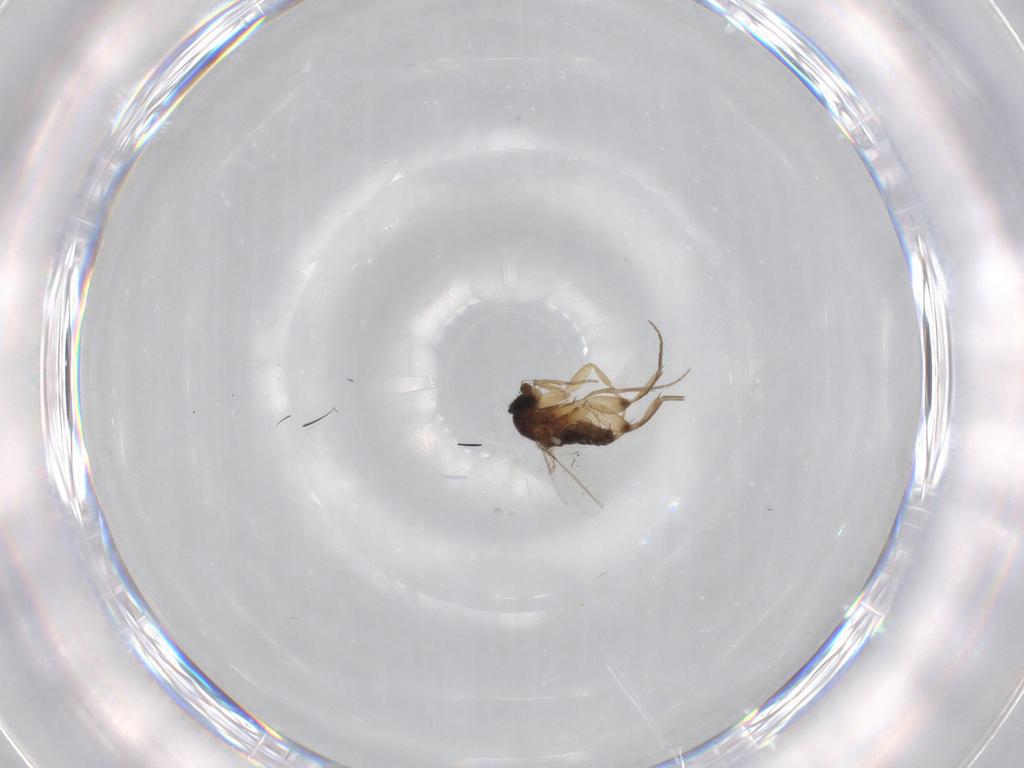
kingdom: Animalia
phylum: Arthropoda
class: Insecta
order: Diptera
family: Phoridae
